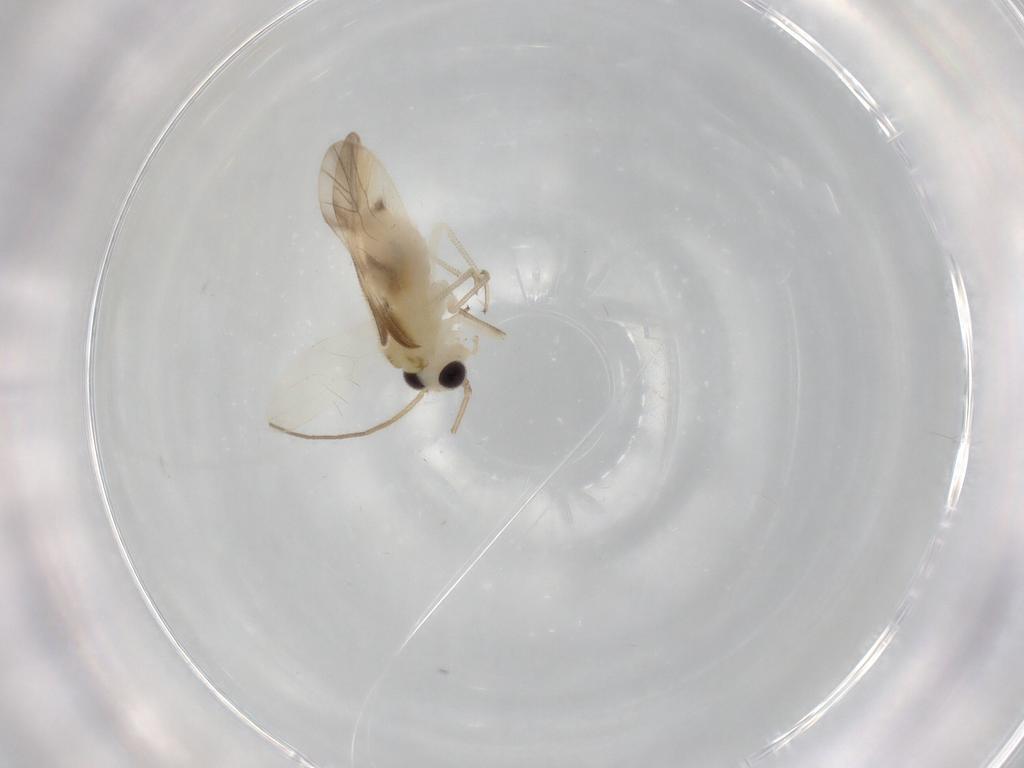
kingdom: Animalia
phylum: Arthropoda
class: Insecta
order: Psocodea
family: Caeciliusidae
